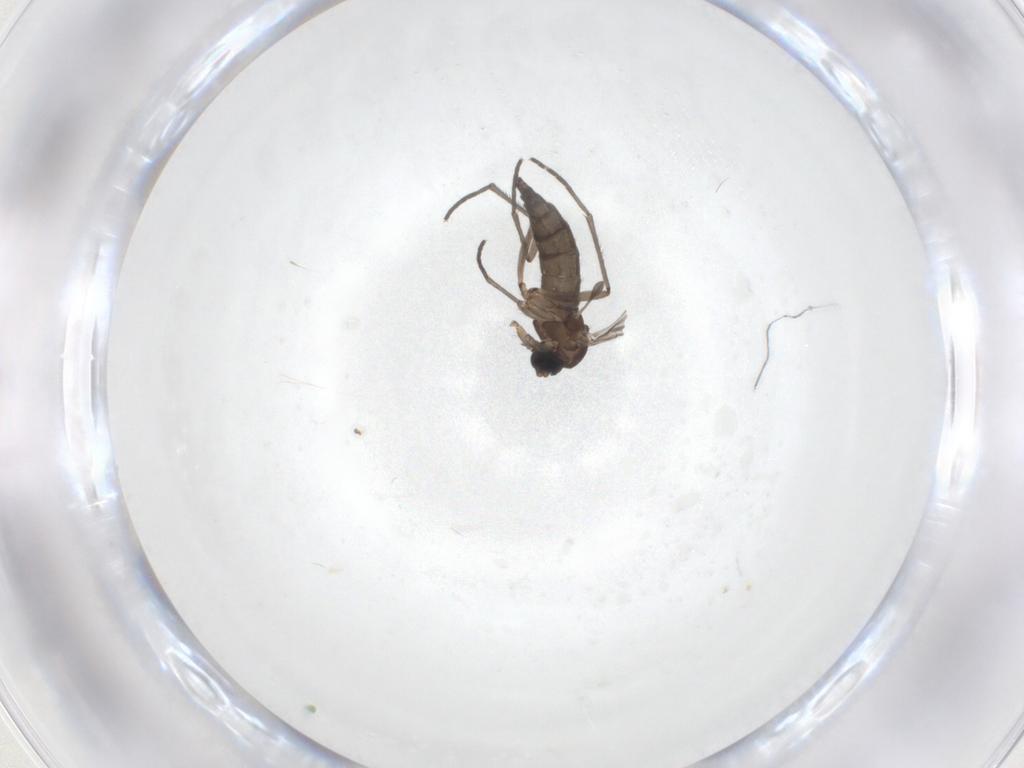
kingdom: Animalia
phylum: Arthropoda
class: Insecta
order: Diptera
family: Sciaridae
